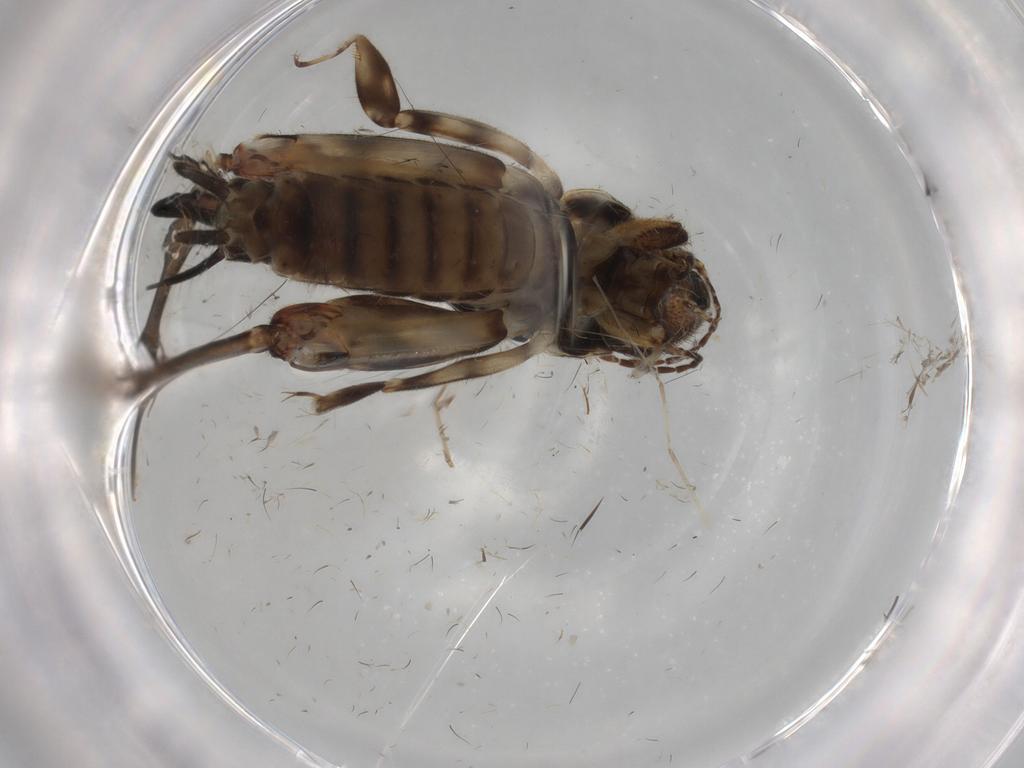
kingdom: Animalia
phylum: Arthropoda
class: Insecta
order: Orthoptera
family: Tridactylidae
